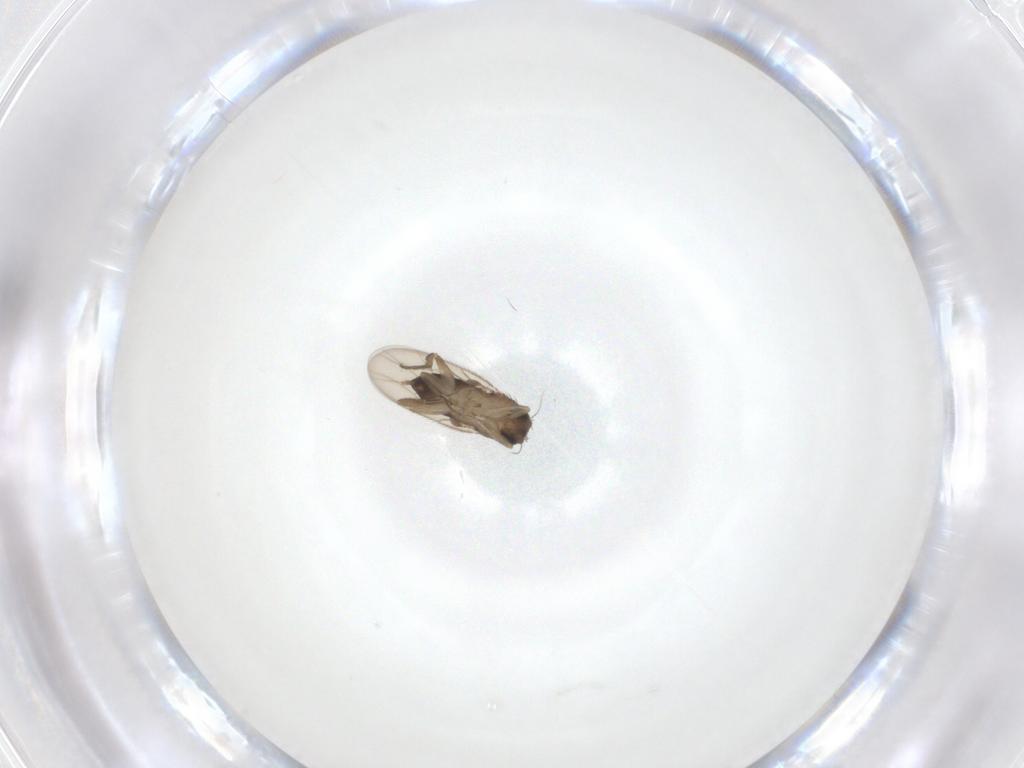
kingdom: Animalia
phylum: Arthropoda
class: Insecta
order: Diptera
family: Phoridae
